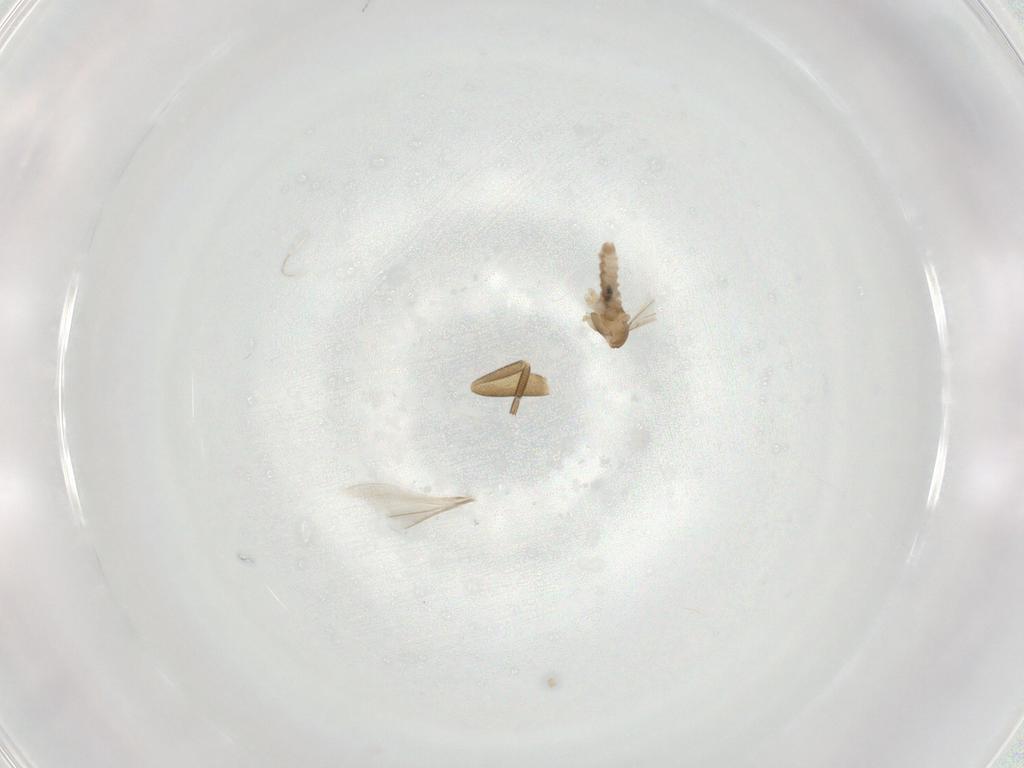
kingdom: Animalia
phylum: Arthropoda
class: Insecta
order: Diptera
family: Cecidomyiidae
